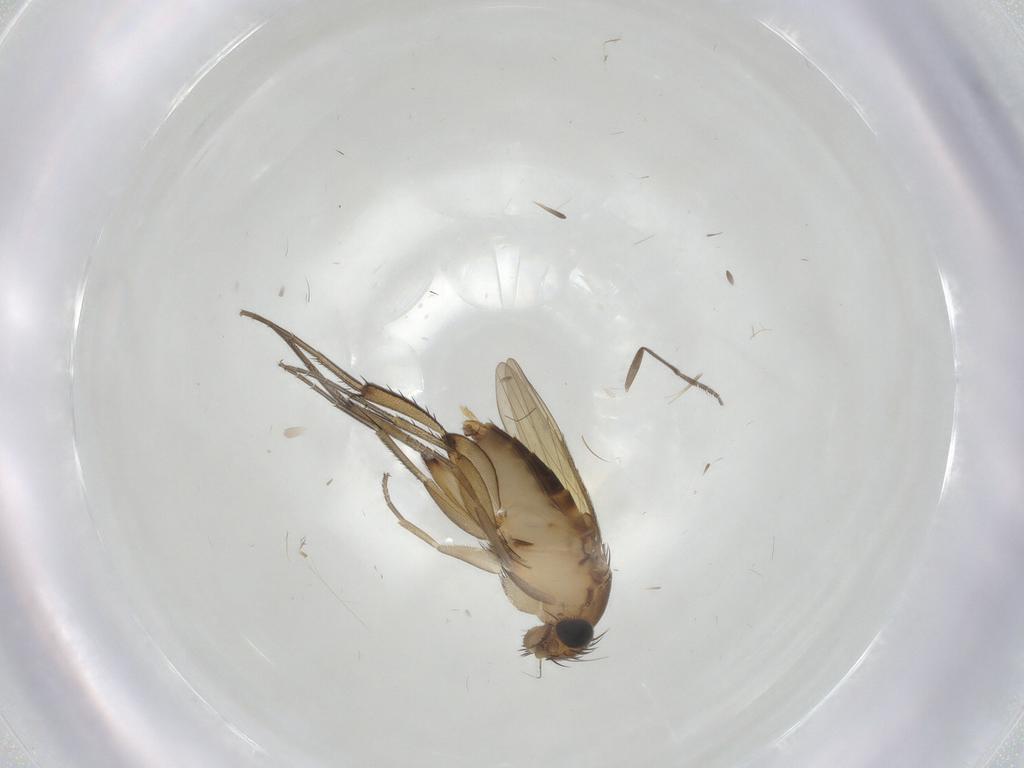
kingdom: Animalia
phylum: Arthropoda
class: Insecta
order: Diptera
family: Phoridae
